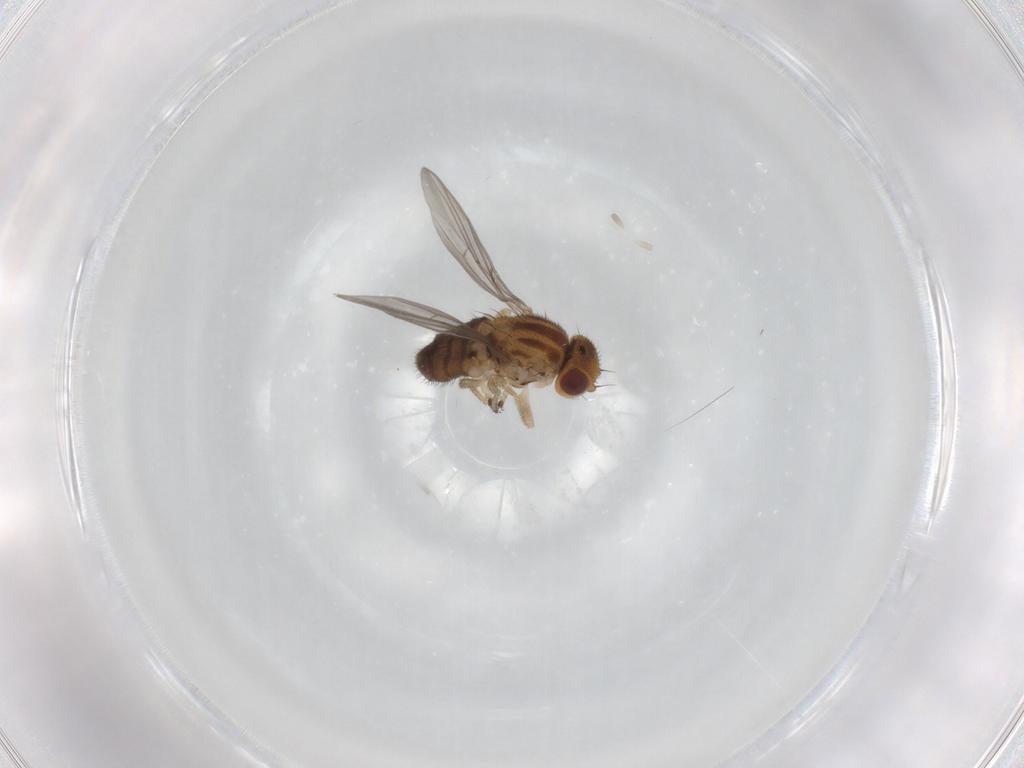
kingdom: Animalia
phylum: Arthropoda
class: Insecta
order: Diptera
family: Chloropidae
